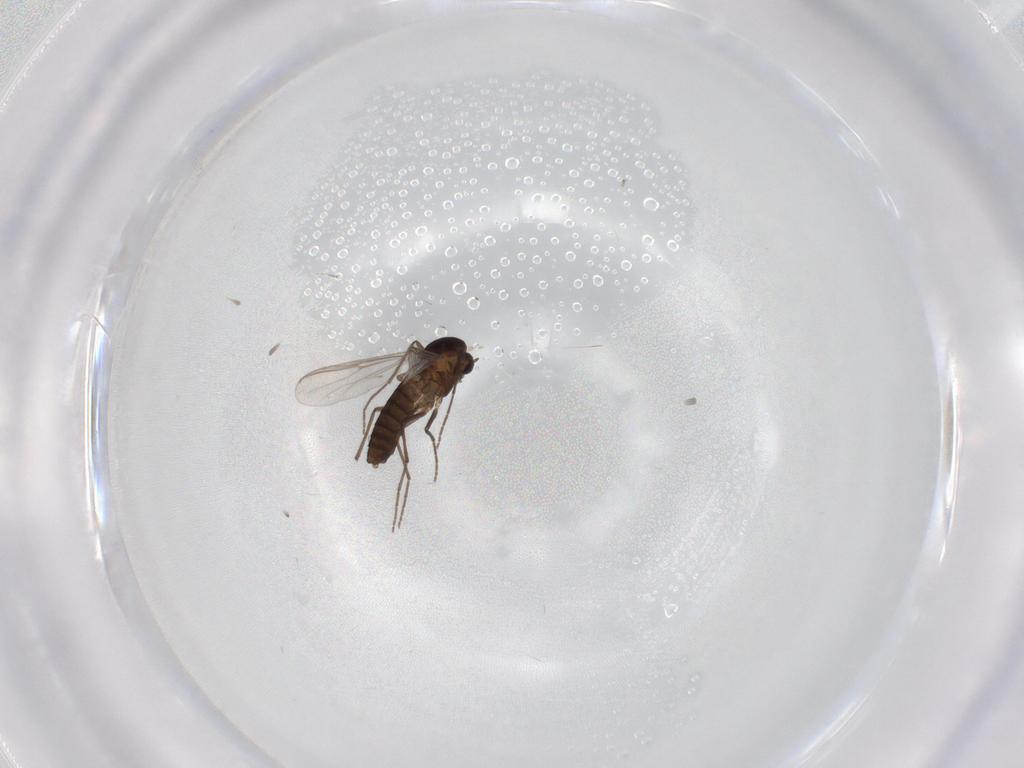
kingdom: Animalia
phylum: Arthropoda
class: Insecta
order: Diptera
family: Chironomidae
